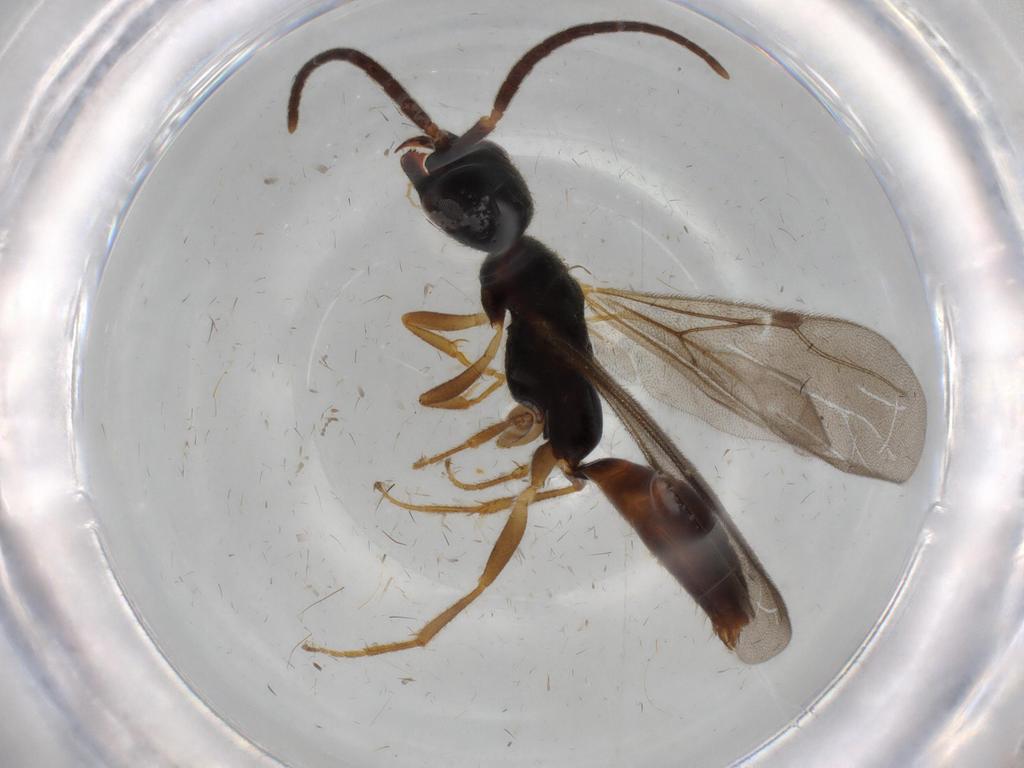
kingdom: Animalia
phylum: Arthropoda
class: Insecta
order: Hymenoptera
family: Bethylidae
